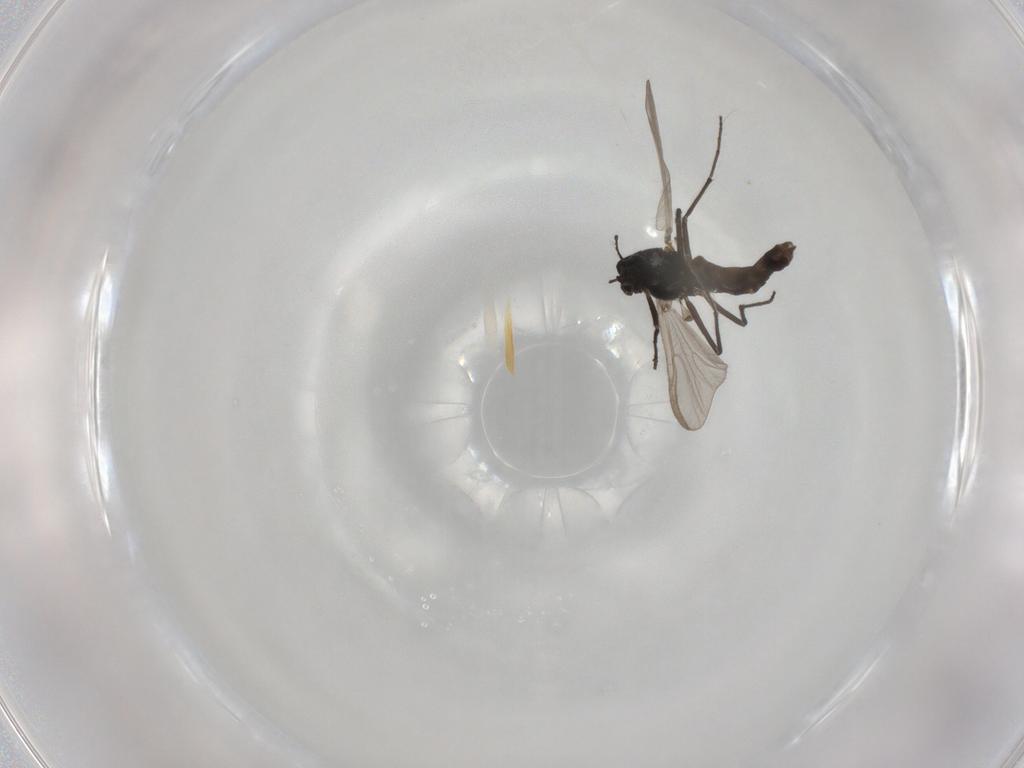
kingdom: Animalia
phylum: Arthropoda
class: Insecta
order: Diptera
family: Chironomidae
